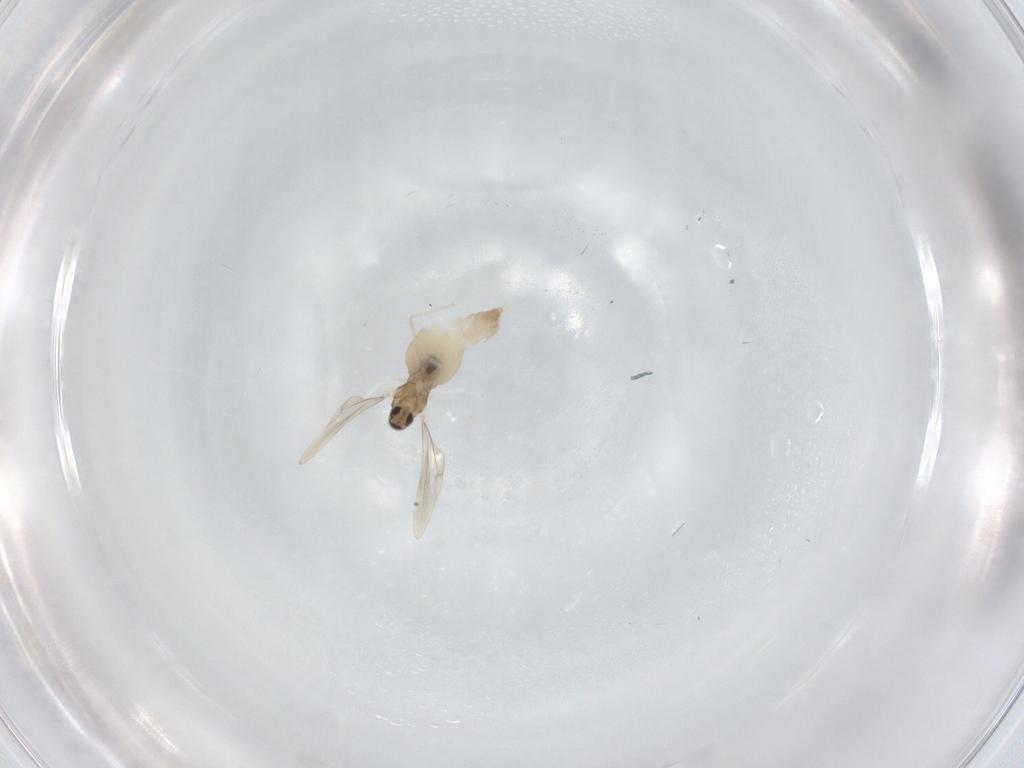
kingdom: Animalia
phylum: Arthropoda
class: Insecta
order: Diptera
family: Cecidomyiidae
